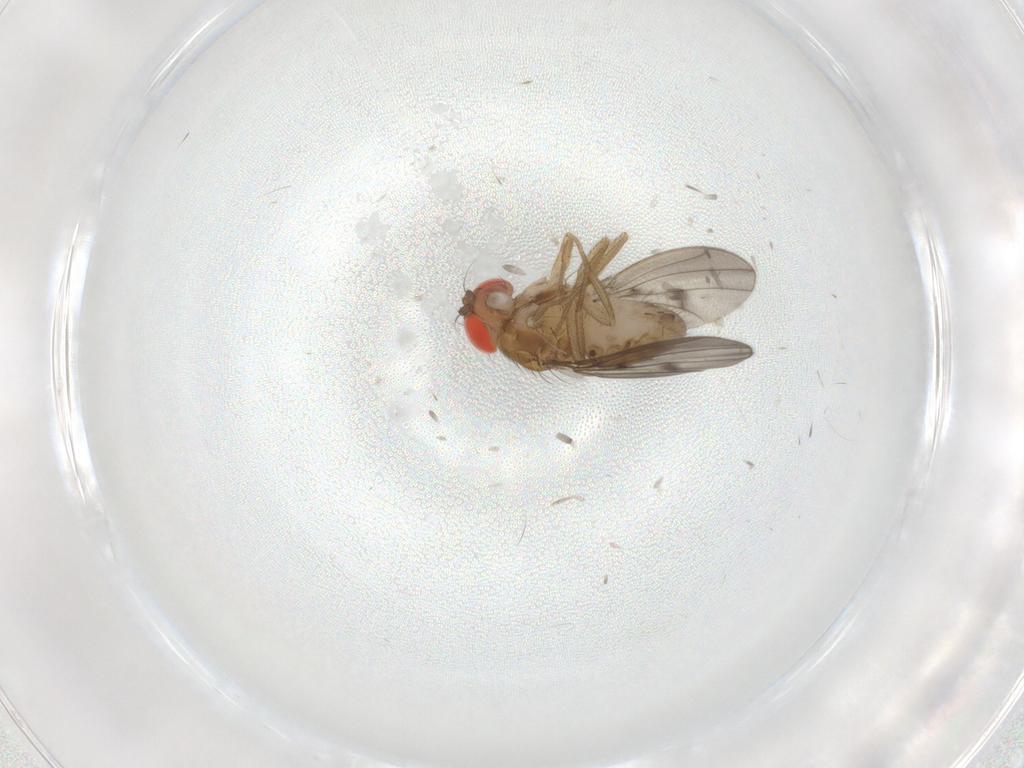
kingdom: Animalia
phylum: Arthropoda
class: Insecta
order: Diptera
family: Drosophilidae
